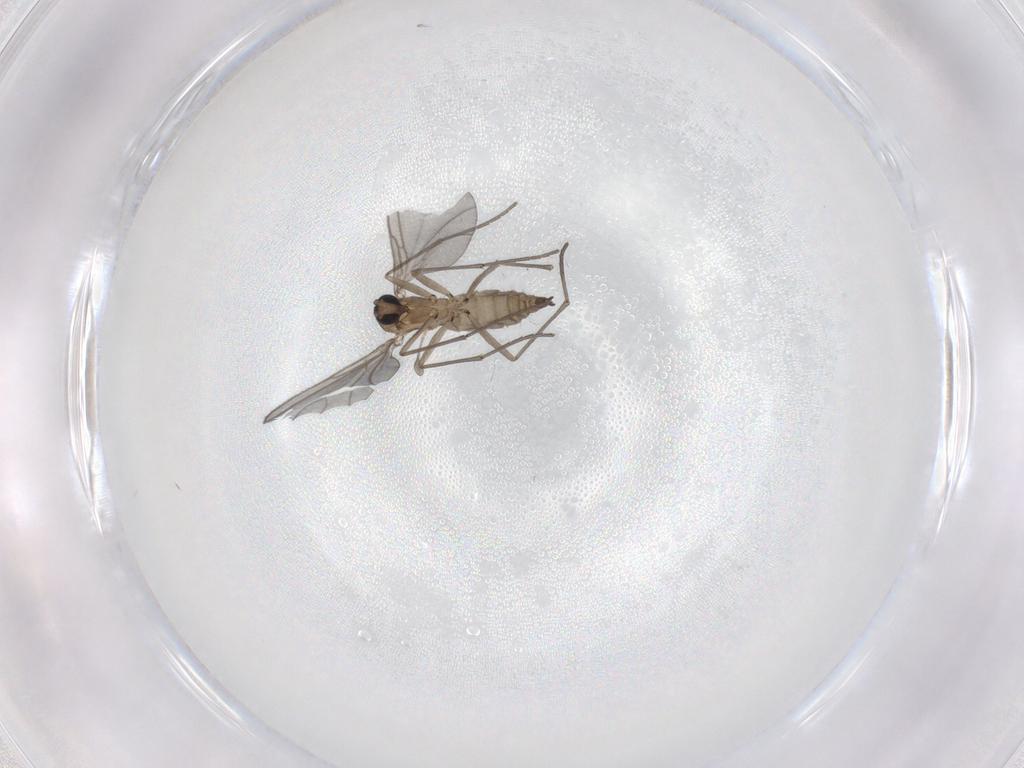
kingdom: Animalia
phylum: Arthropoda
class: Insecta
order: Diptera
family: Sciaridae
